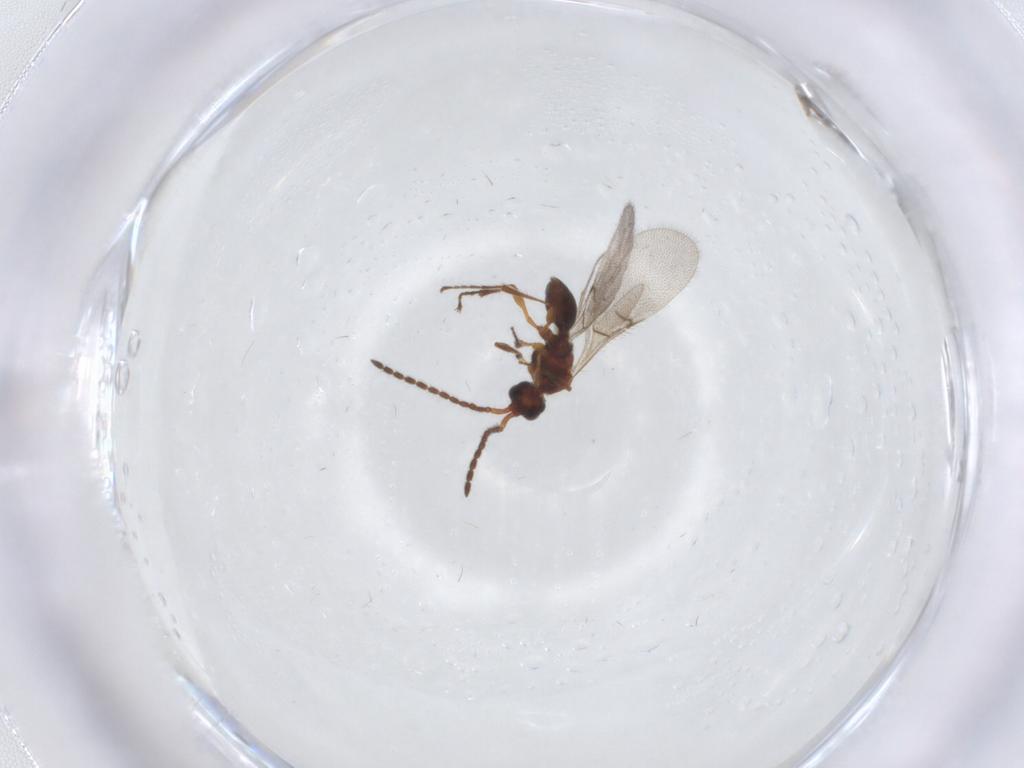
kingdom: Animalia
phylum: Arthropoda
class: Insecta
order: Hymenoptera
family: Diapriidae
